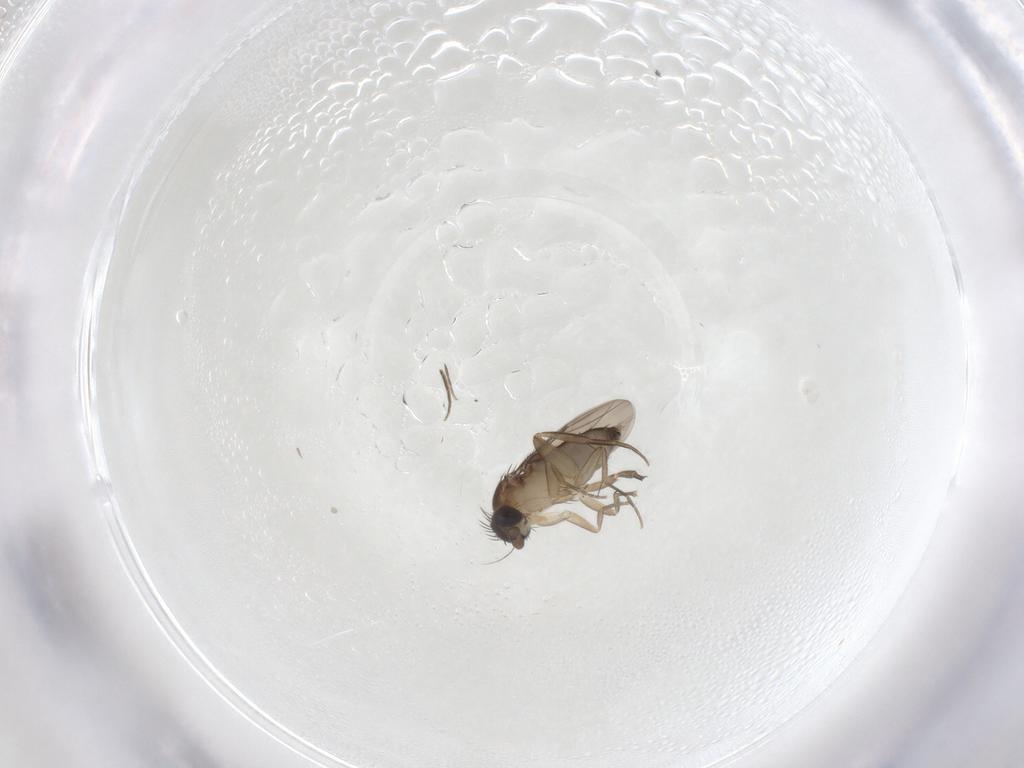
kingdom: Animalia
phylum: Arthropoda
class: Insecta
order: Diptera
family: Phoridae
